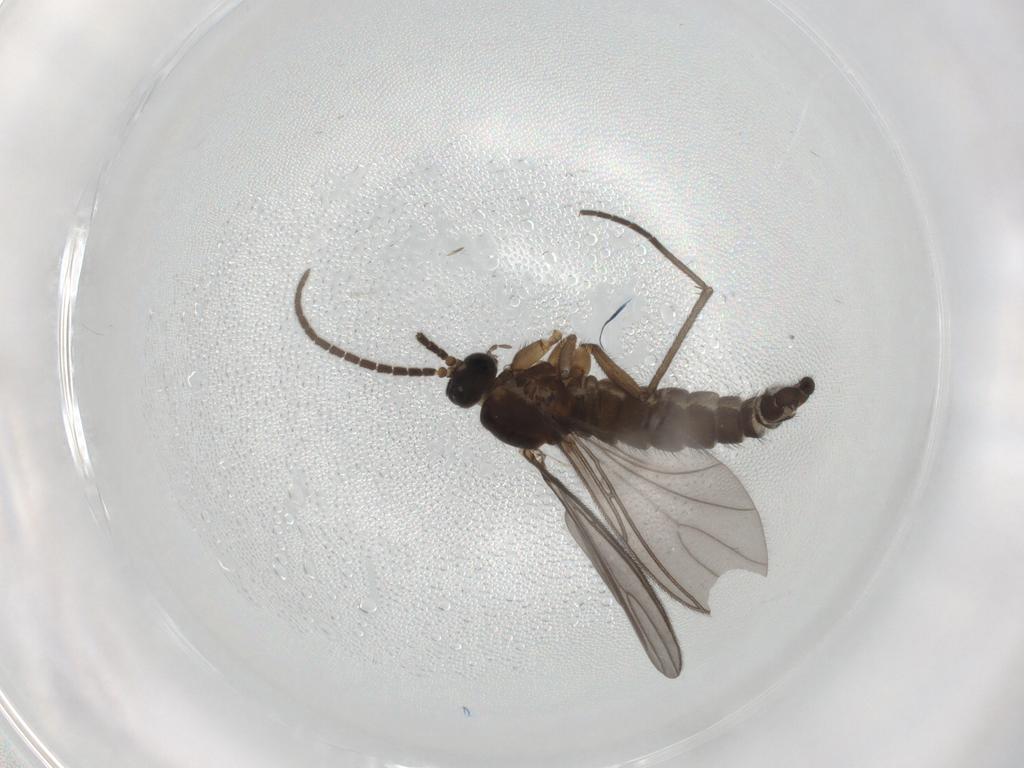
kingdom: Animalia
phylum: Arthropoda
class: Insecta
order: Diptera
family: Sciaridae
